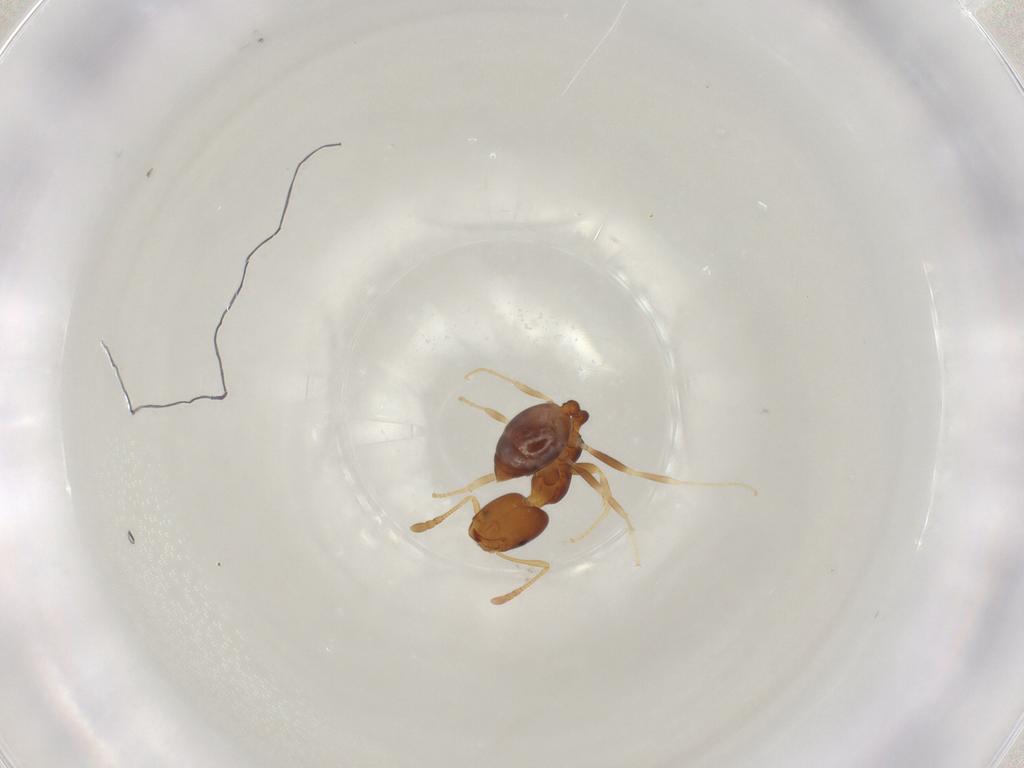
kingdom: Animalia
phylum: Arthropoda
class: Insecta
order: Hymenoptera
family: Formicidae
